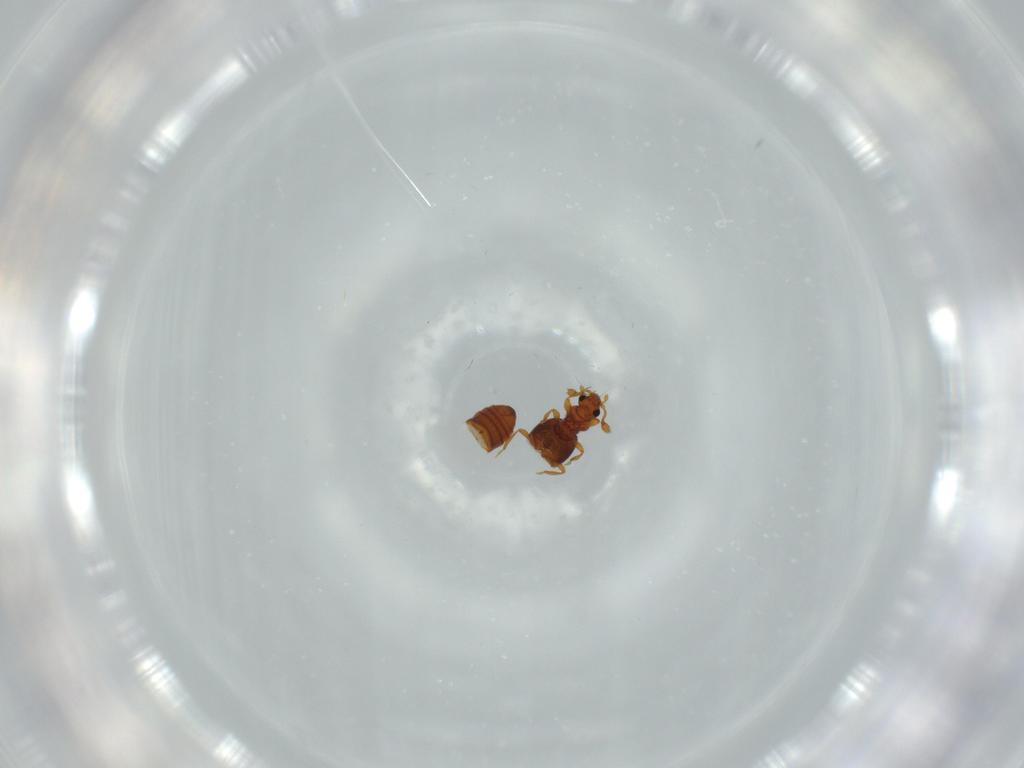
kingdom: Animalia
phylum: Arthropoda
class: Insecta
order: Coleoptera
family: Staphylinidae
